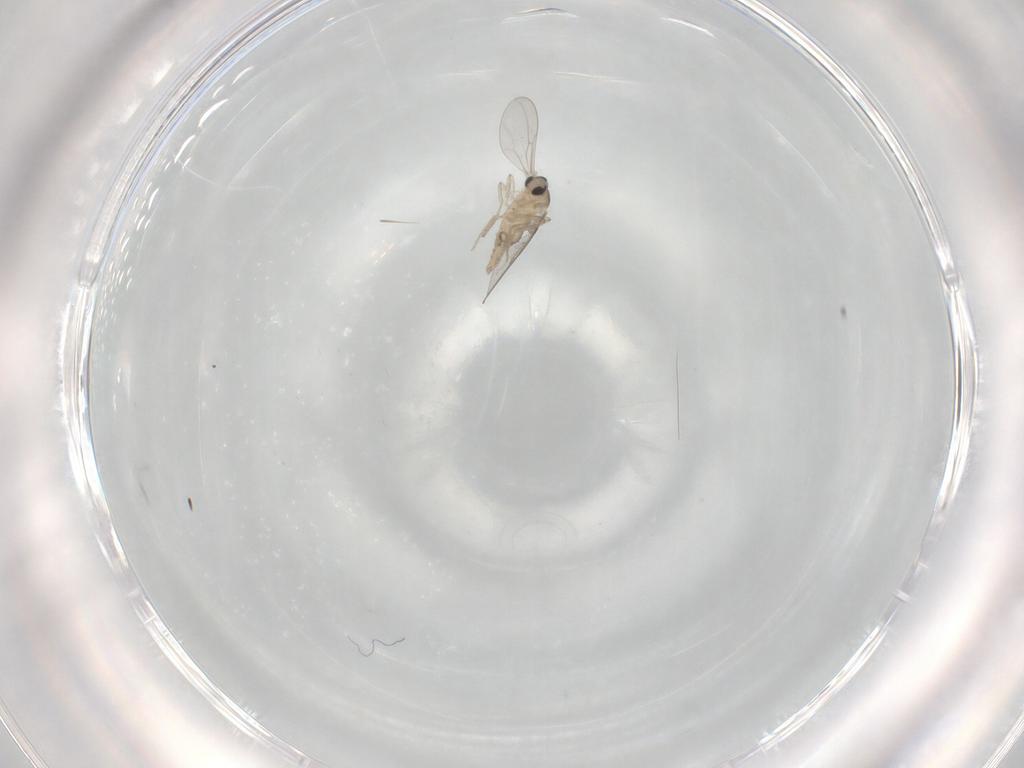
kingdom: Animalia
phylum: Arthropoda
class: Insecta
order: Diptera
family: Cecidomyiidae
